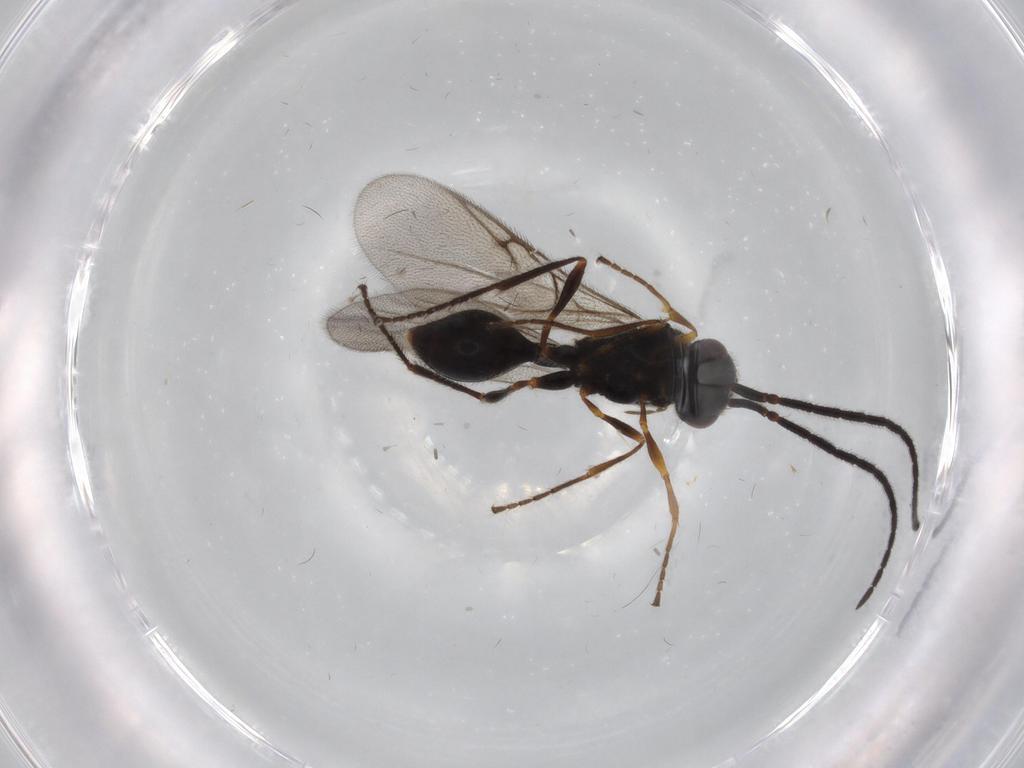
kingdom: Animalia
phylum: Arthropoda
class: Insecta
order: Hymenoptera
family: Diapriidae
